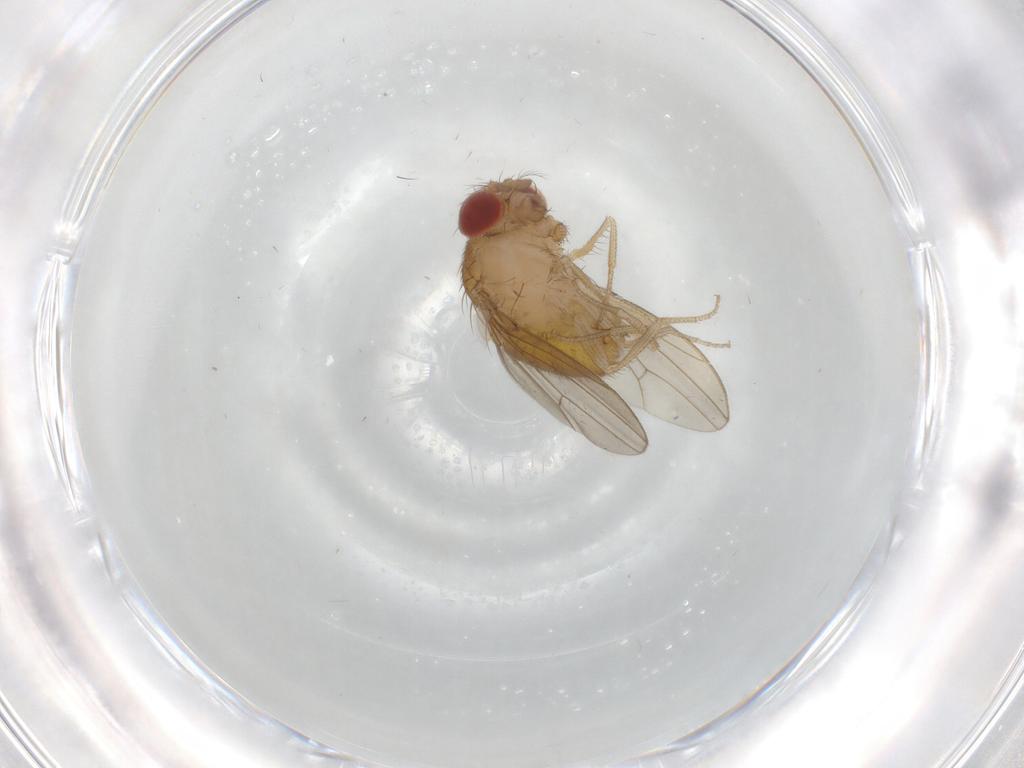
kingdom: Animalia
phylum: Arthropoda
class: Insecta
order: Diptera
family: Drosophilidae
